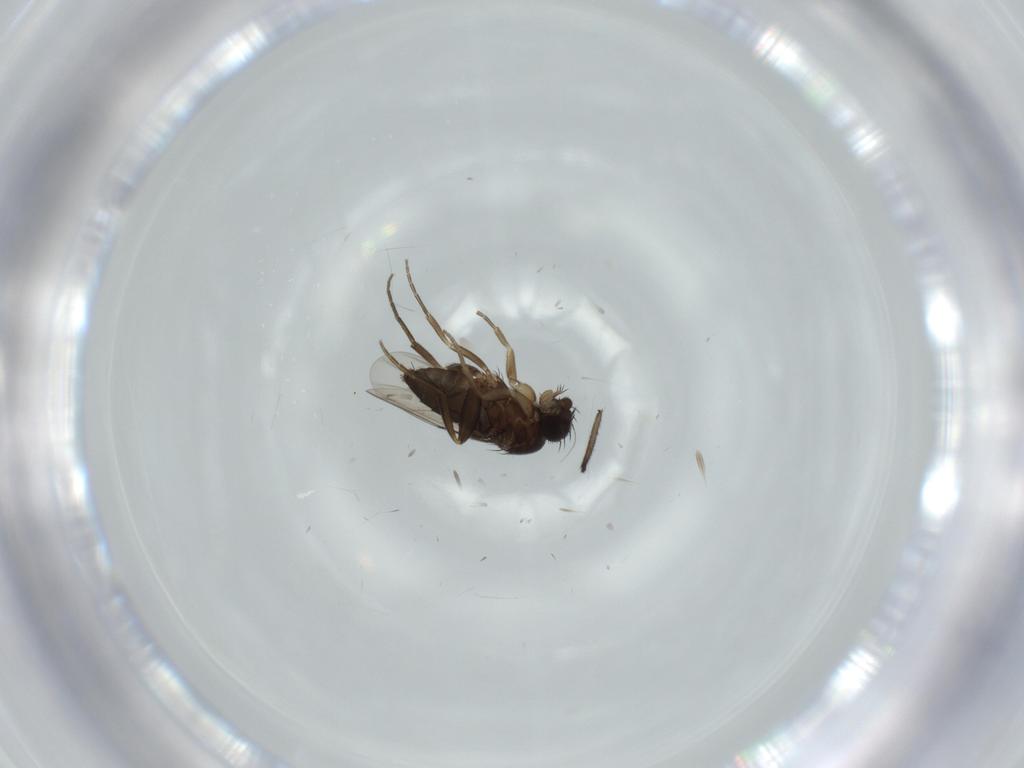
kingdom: Animalia
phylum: Arthropoda
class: Insecta
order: Diptera
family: Phoridae
